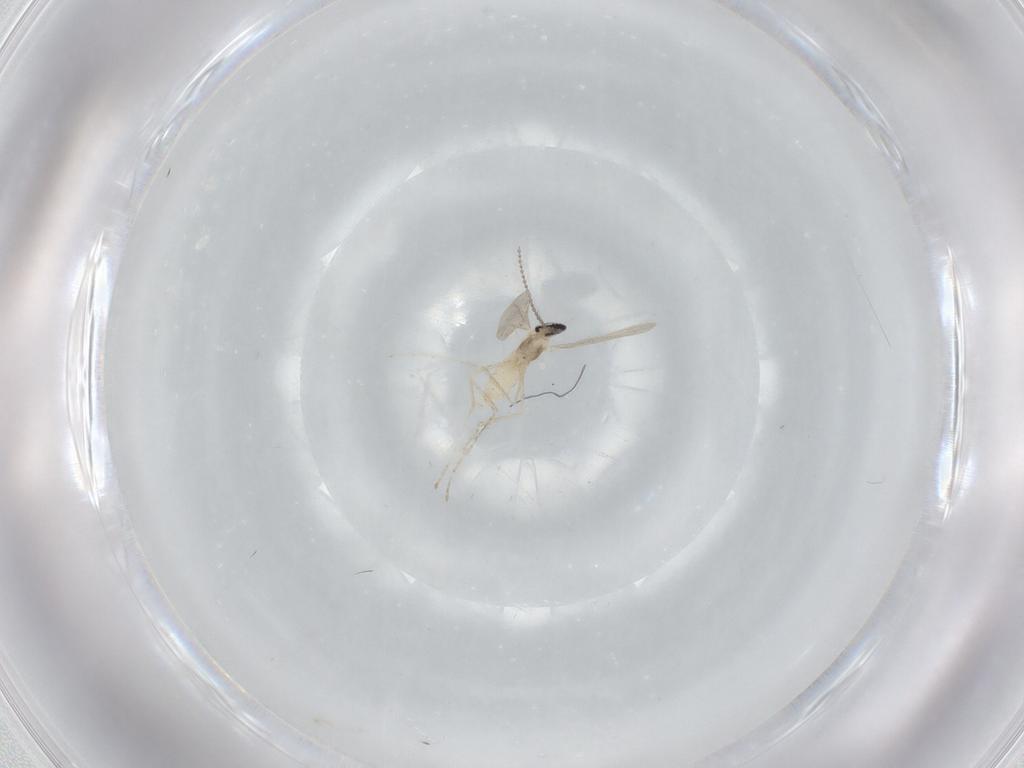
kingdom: Animalia
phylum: Arthropoda
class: Insecta
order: Diptera
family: Cecidomyiidae
